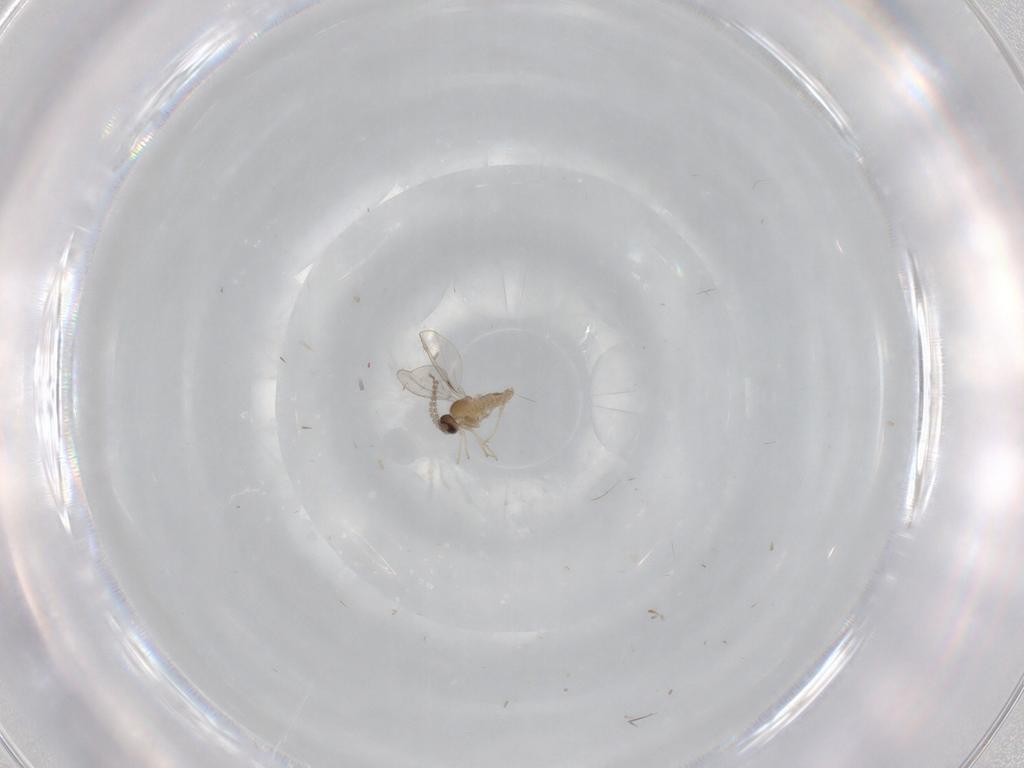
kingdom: Animalia
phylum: Arthropoda
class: Insecta
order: Diptera
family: Cecidomyiidae
